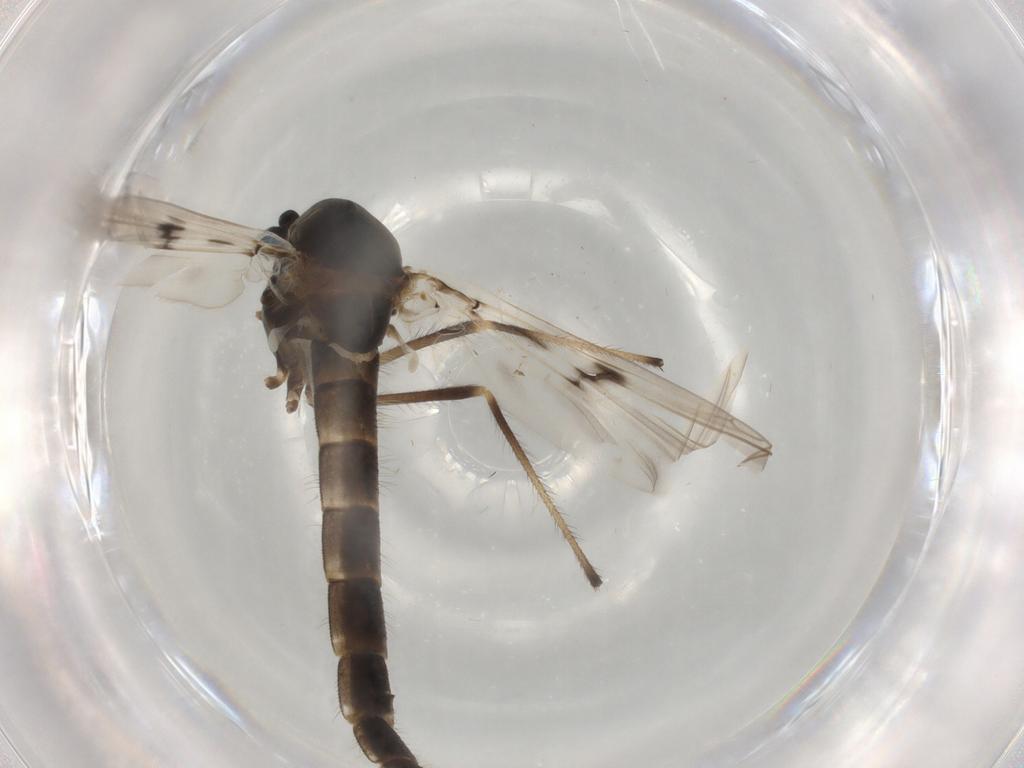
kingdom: Animalia
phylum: Arthropoda
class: Insecta
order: Diptera
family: Chironomidae
